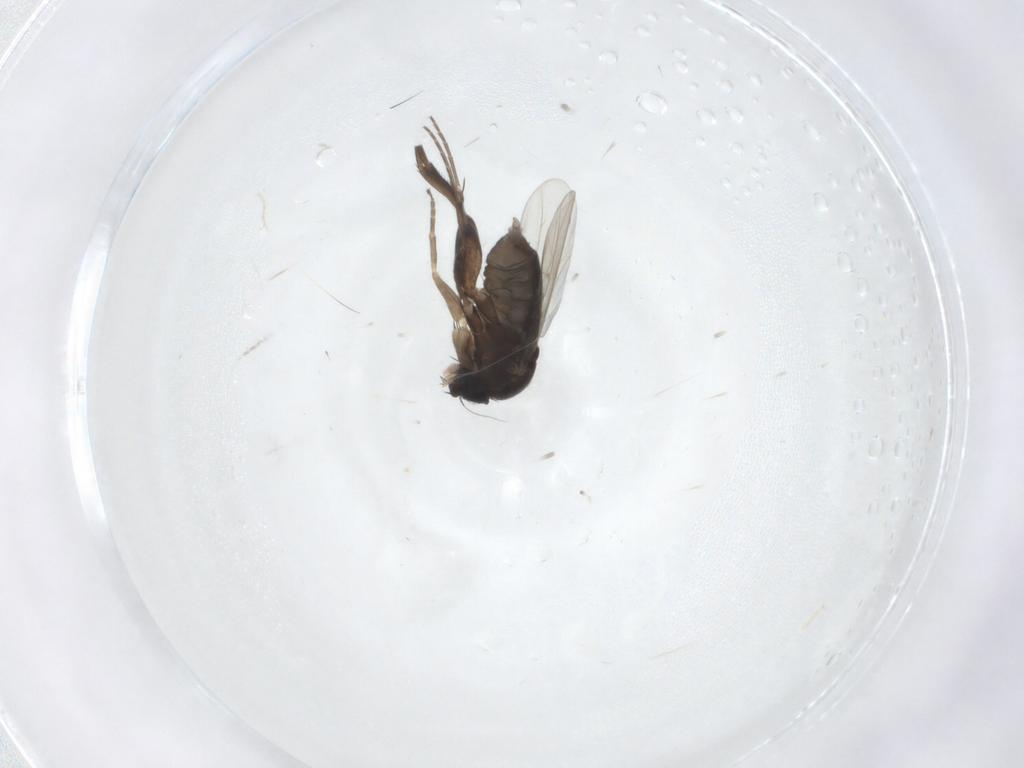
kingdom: Animalia
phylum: Arthropoda
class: Insecta
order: Diptera
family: Phoridae
